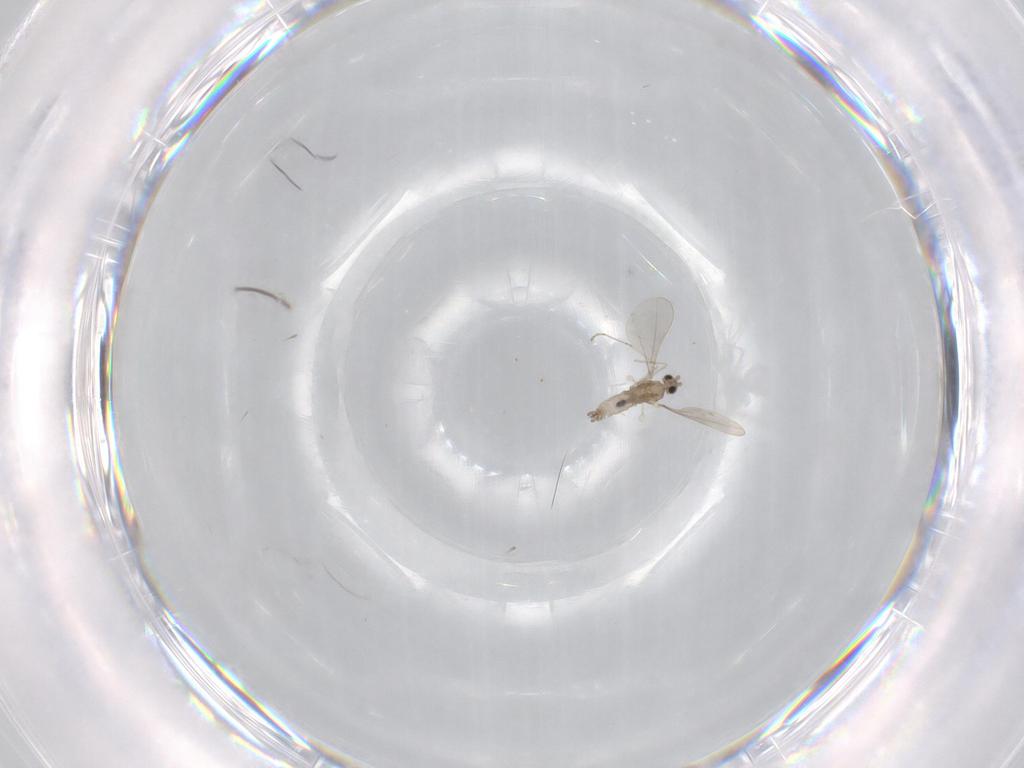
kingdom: Animalia
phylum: Arthropoda
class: Insecta
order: Diptera
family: Cecidomyiidae
